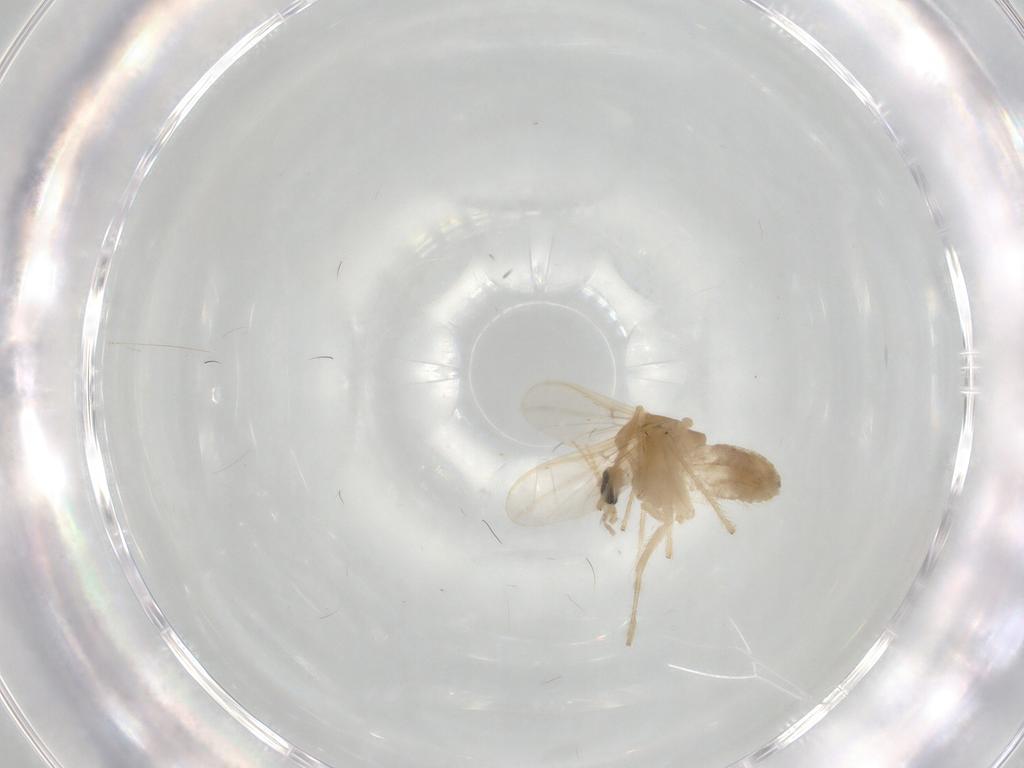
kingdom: Animalia
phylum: Arthropoda
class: Insecta
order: Diptera
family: Chironomidae
